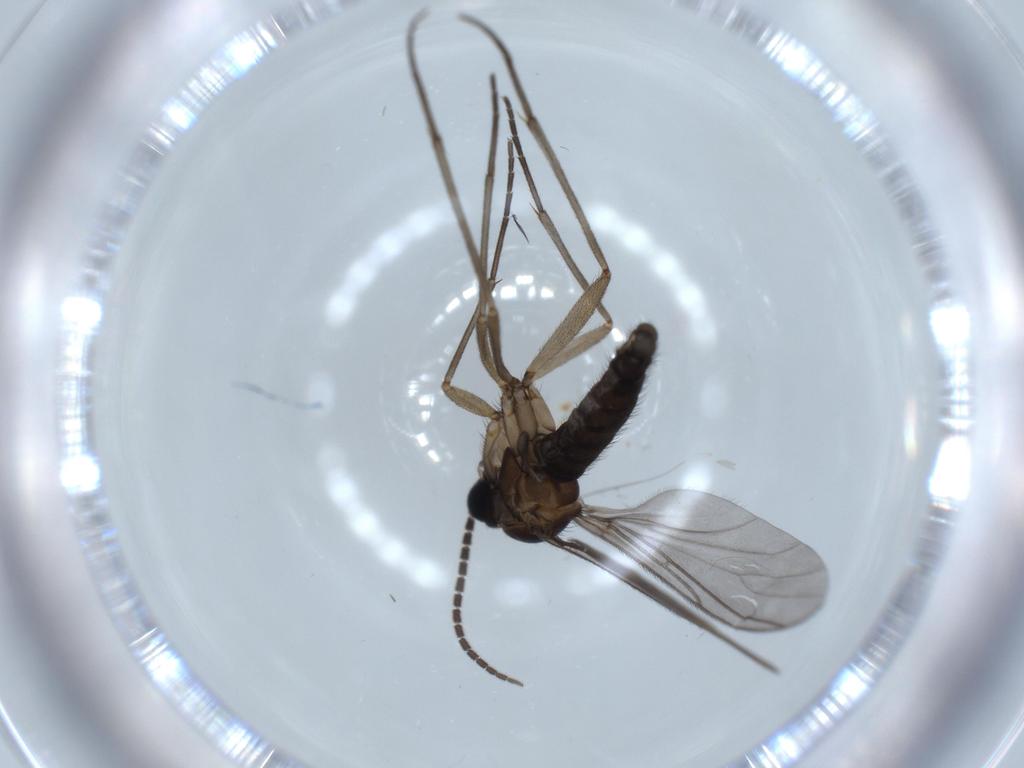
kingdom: Animalia
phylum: Arthropoda
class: Insecta
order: Diptera
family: Sciaridae
